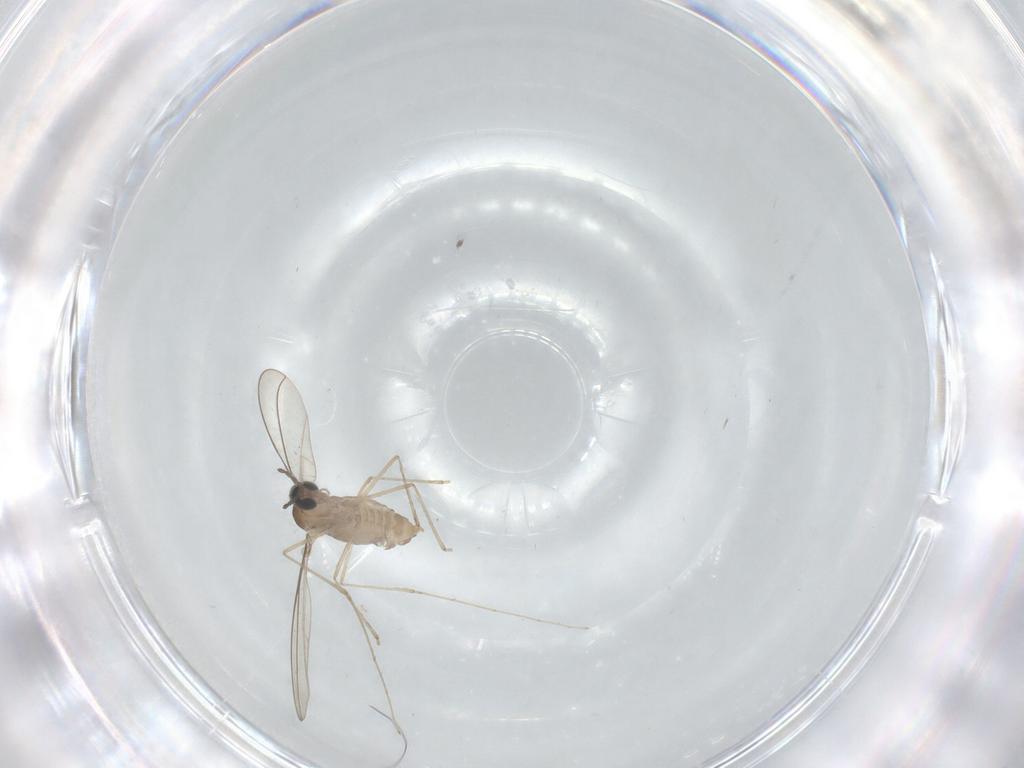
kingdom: Animalia
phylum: Arthropoda
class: Insecta
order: Diptera
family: Cecidomyiidae
